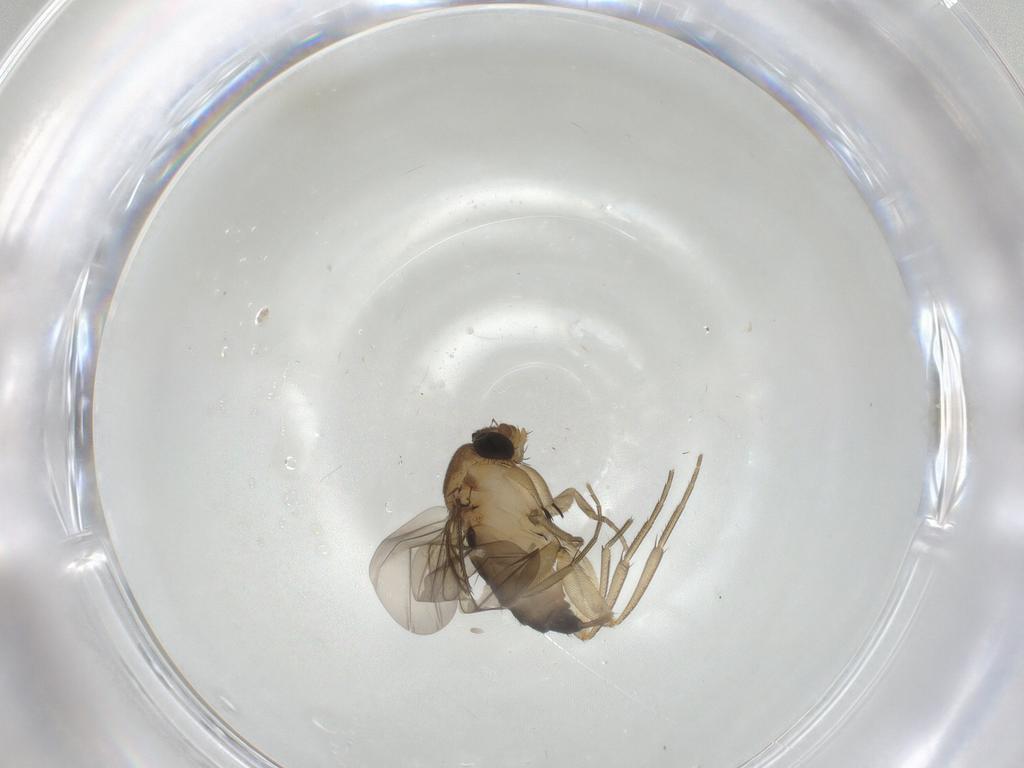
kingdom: Animalia
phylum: Arthropoda
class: Insecta
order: Diptera
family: Phoridae
